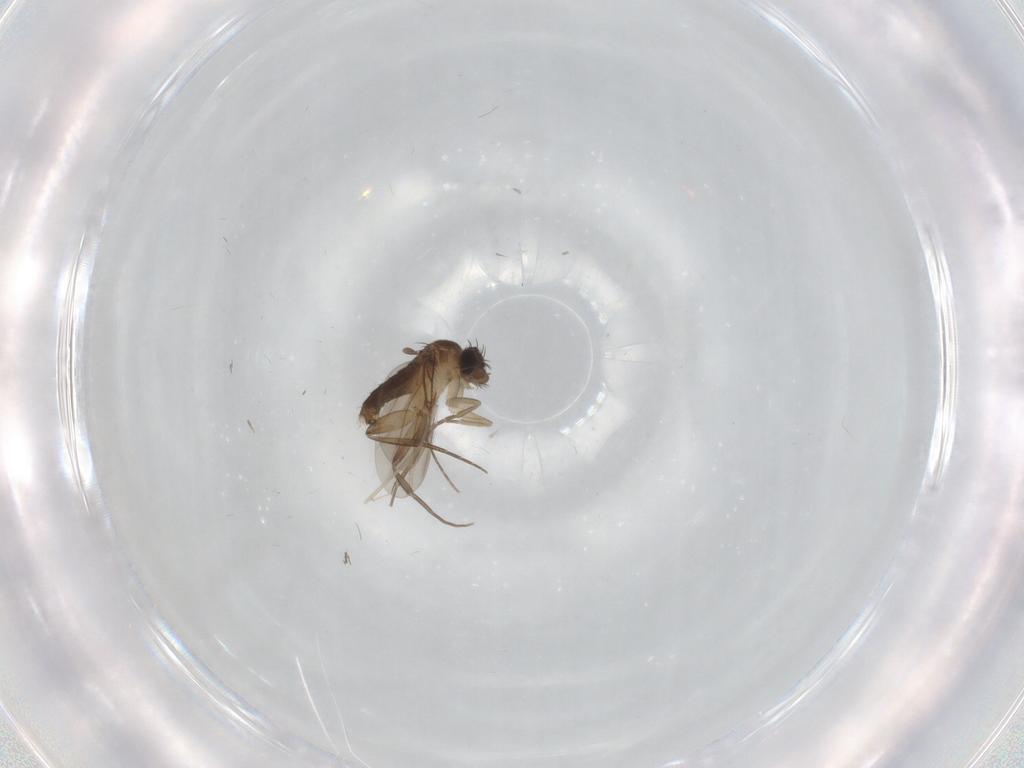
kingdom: Animalia
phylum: Arthropoda
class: Insecta
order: Diptera
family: Phoridae
